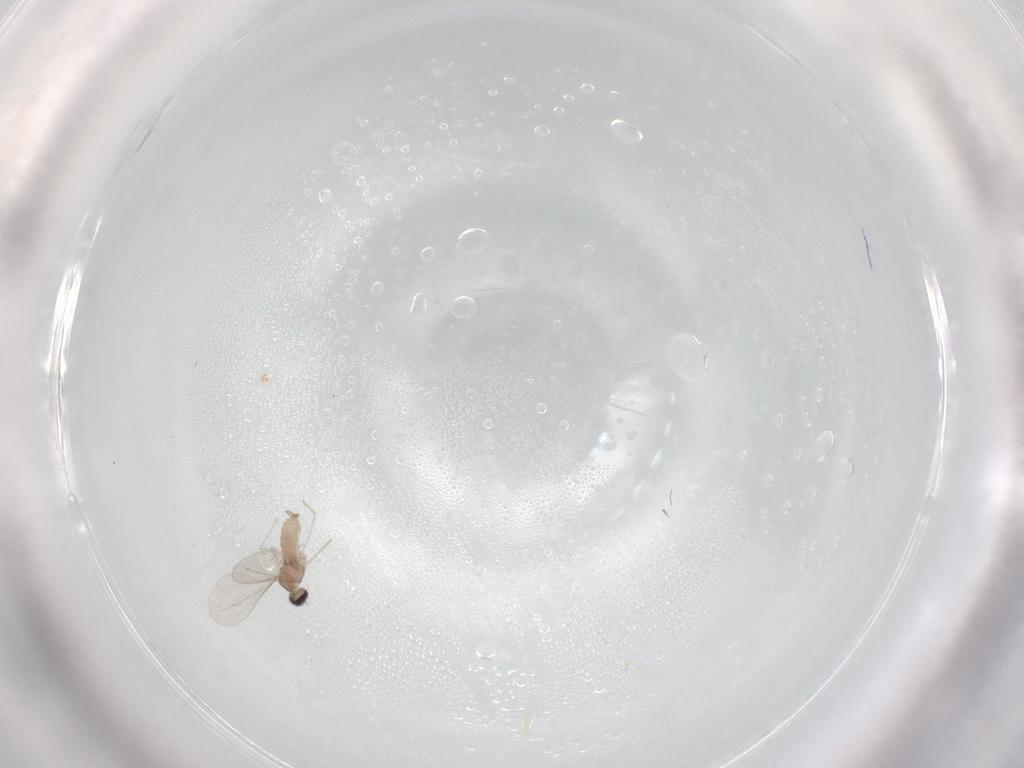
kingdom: Animalia
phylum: Arthropoda
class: Insecta
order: Diptera
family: Cecidomyiidae
